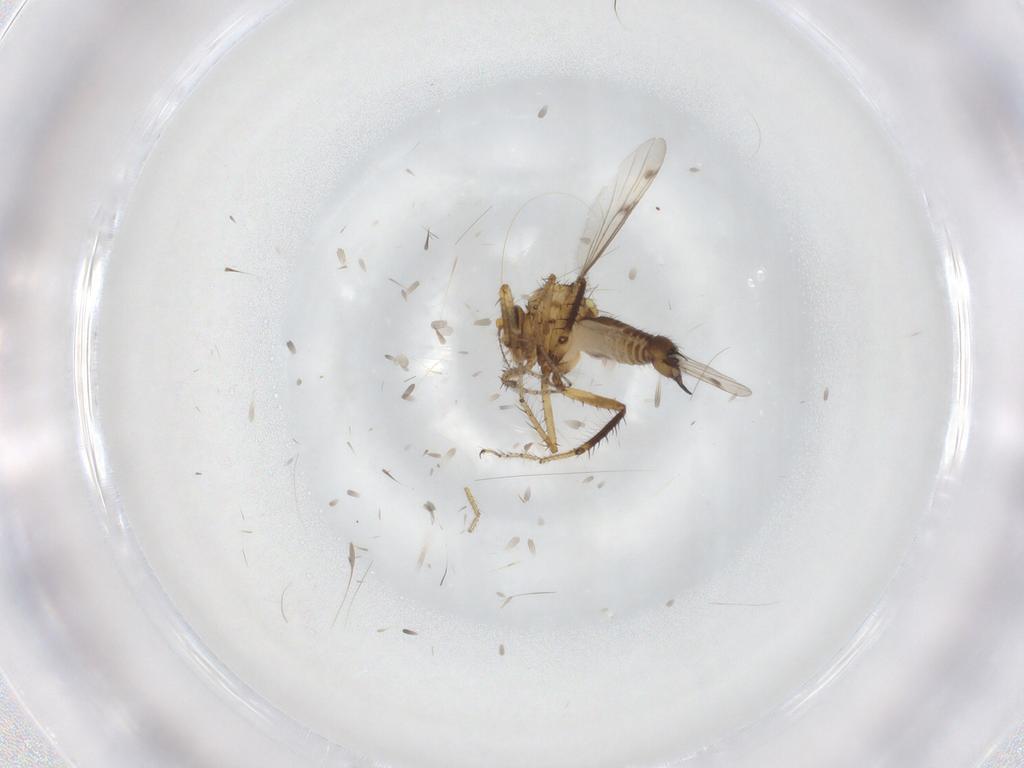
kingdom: Animalia
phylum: Arthropoda
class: Insecta
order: Diptera
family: Ceratopogonidae
